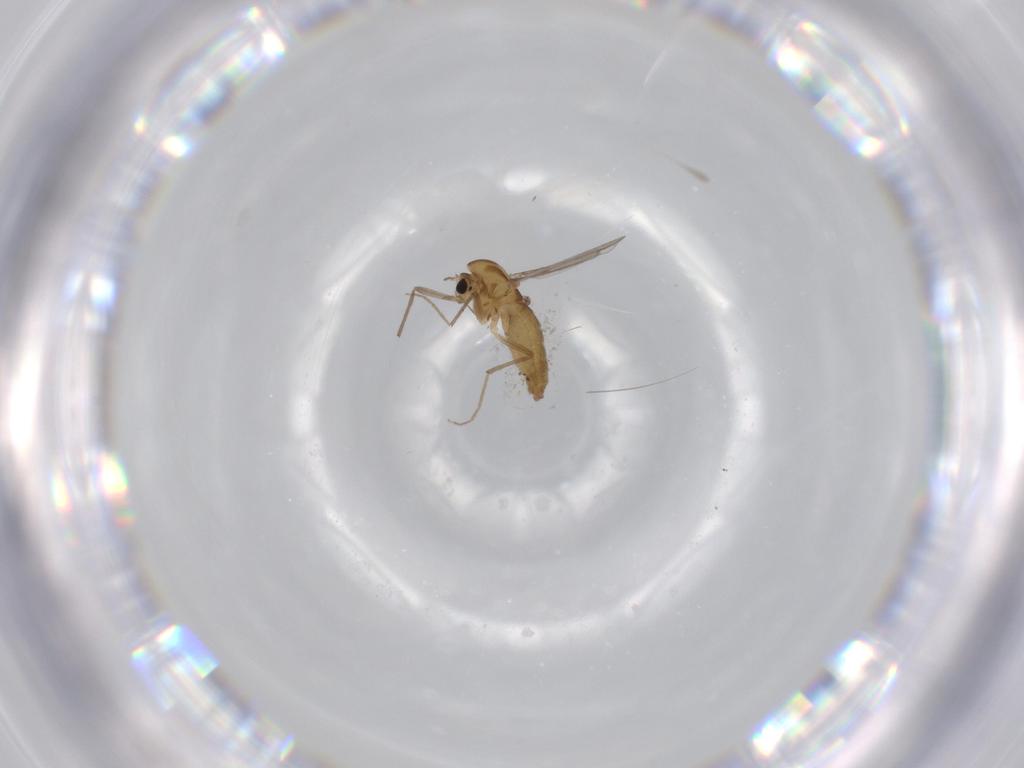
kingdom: Animalia
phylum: Arthropoda
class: Insecta
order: Diptera
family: Chironomidae
